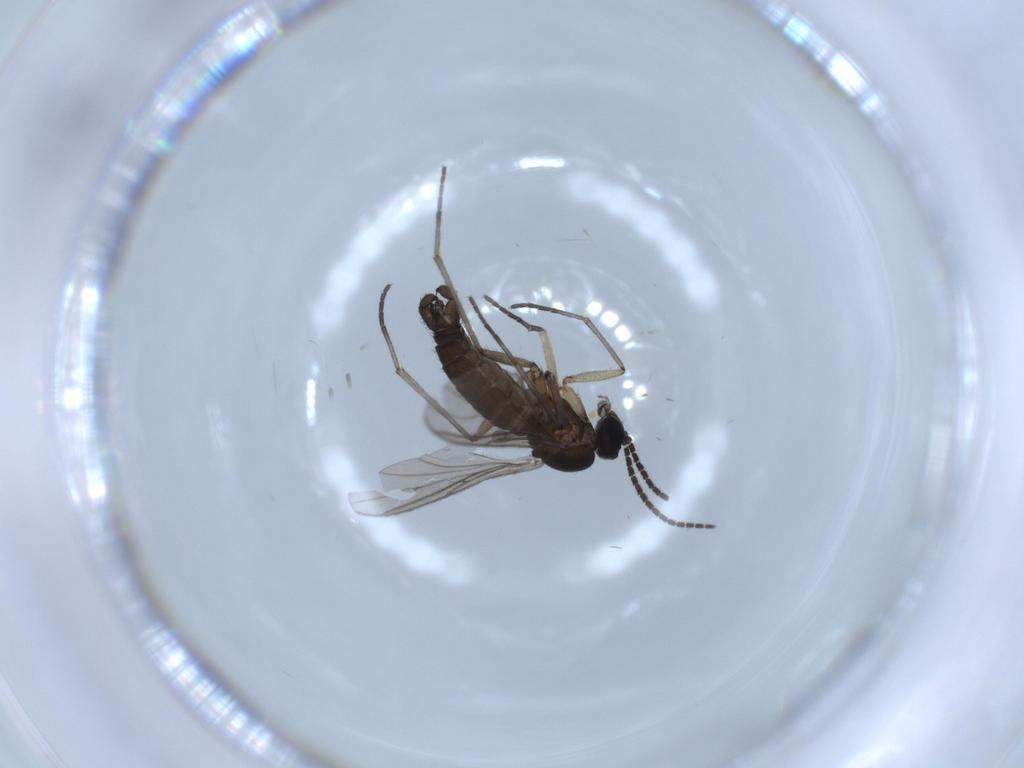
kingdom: Animalia
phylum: Arthropoda
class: Insecta
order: Diptera
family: Sciaridae
